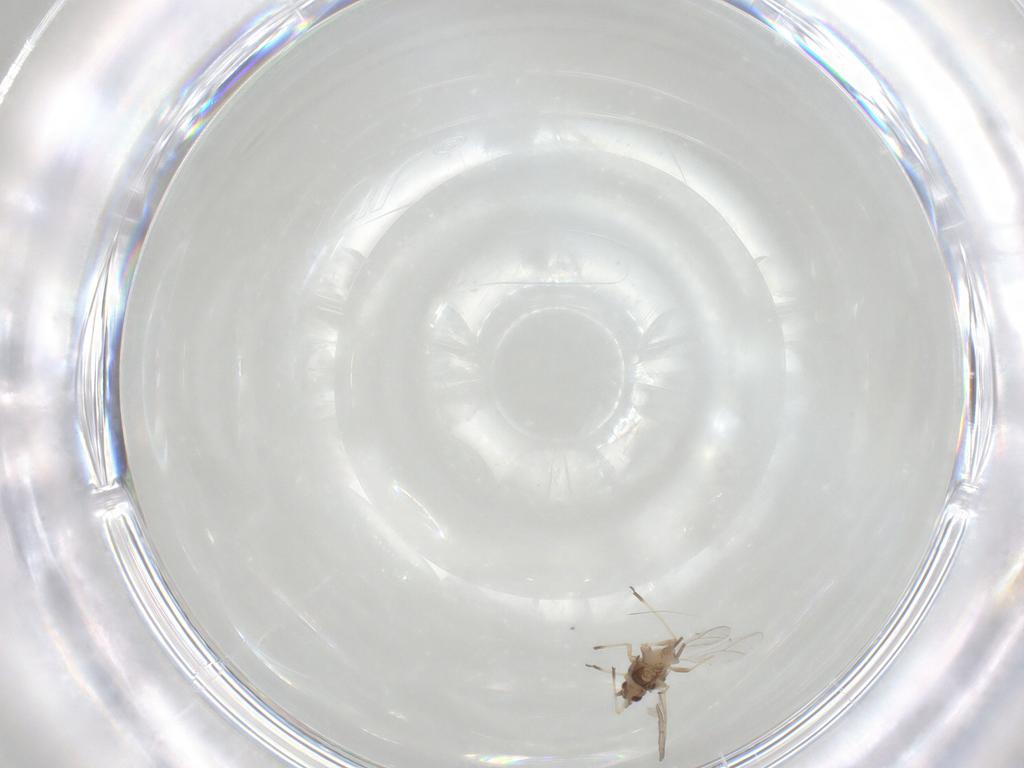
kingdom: Animalia
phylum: Arthropoda
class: Insecta
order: Hemiptera
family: Aphididae
